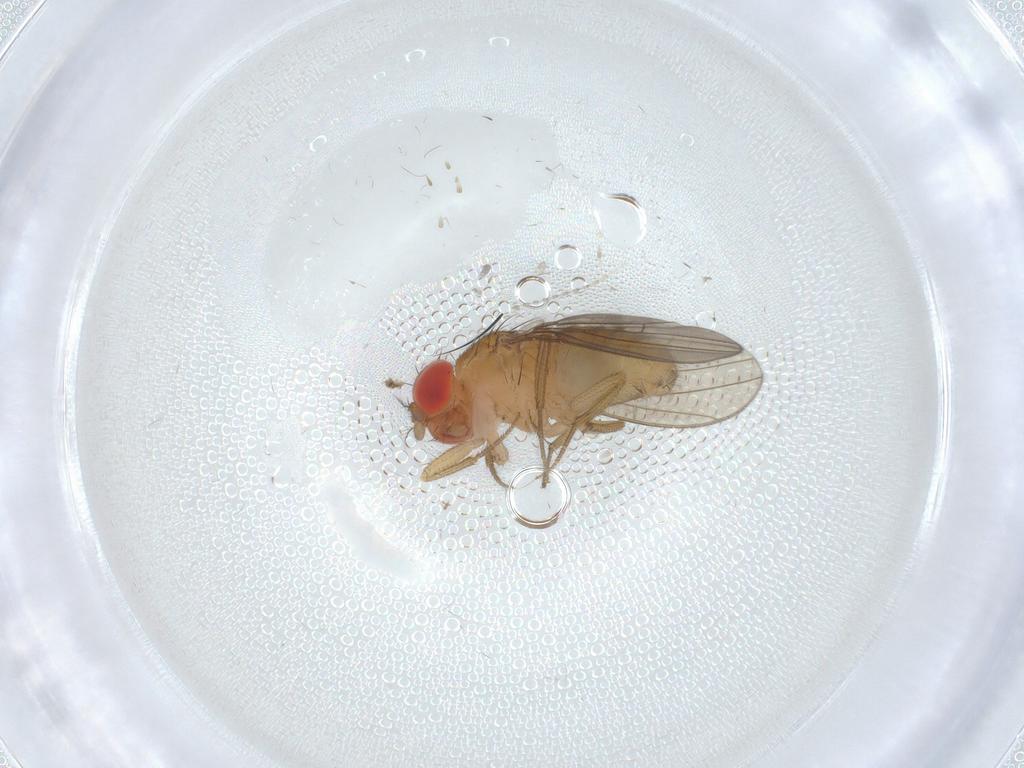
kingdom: Animalia
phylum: Arthropoda
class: Insecta
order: Diptera
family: Drosophilidae
